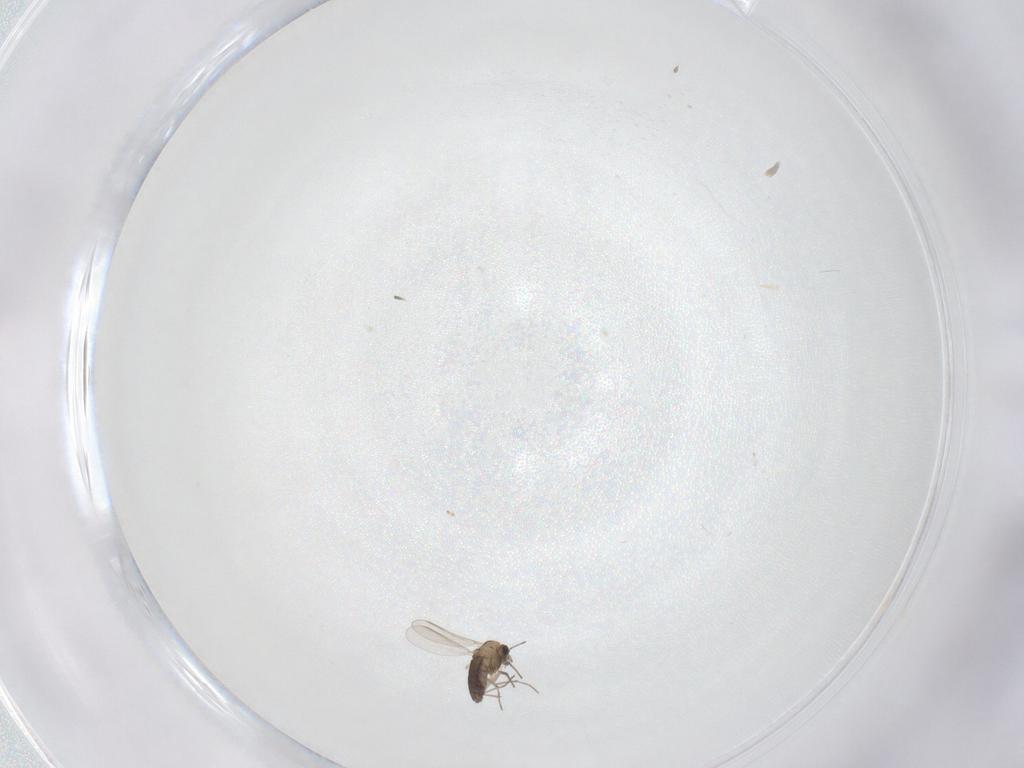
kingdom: Animalia
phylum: Arthropoda
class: Insecta
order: Diptera
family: Chironomidae
